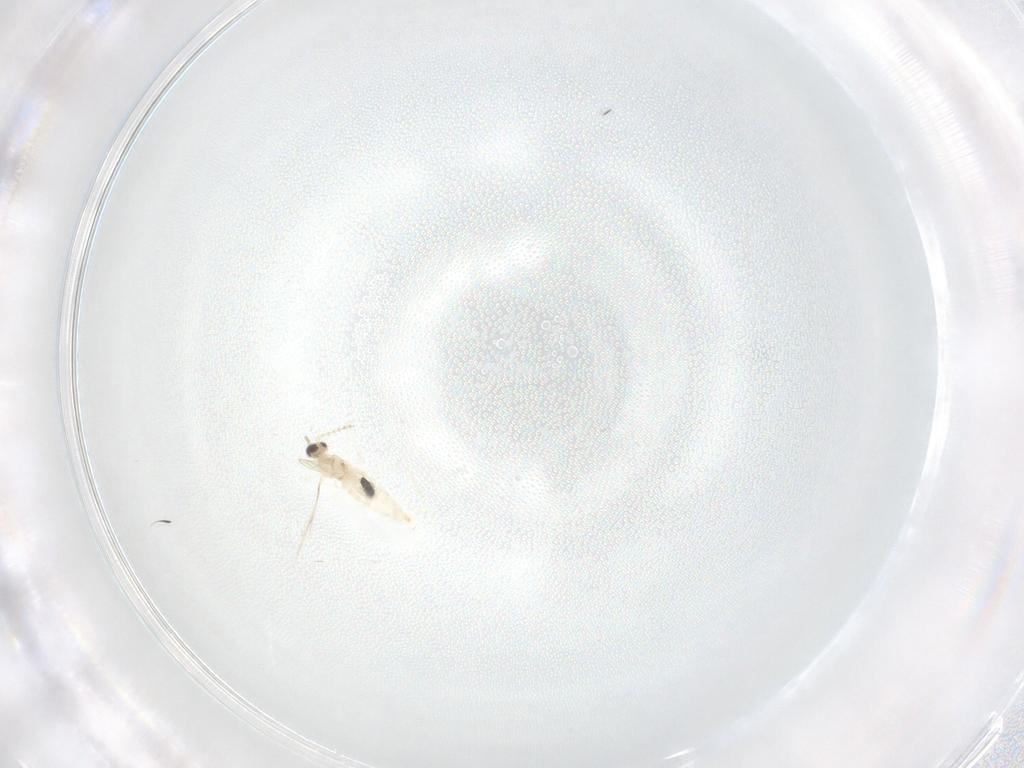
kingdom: Animalia
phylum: Arthropoda
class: Insecta
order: Diptera
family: Cecidomyiidae
